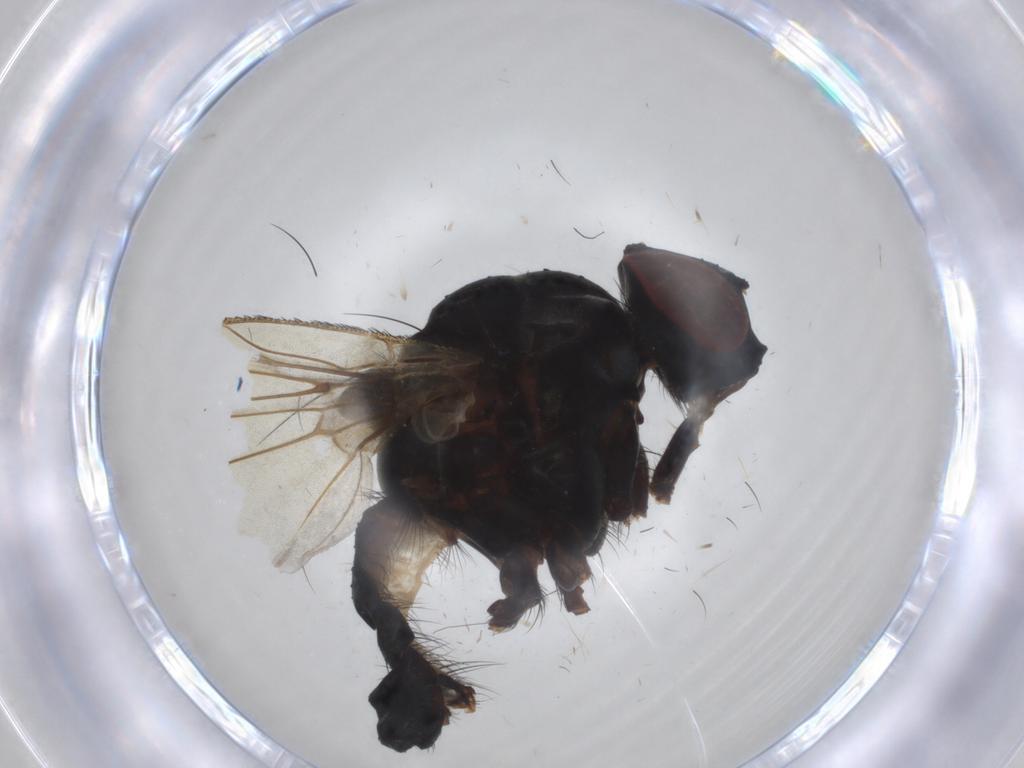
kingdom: Animalia
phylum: Arthropoda
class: Insecta
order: Diptera
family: Anthomyiidae
